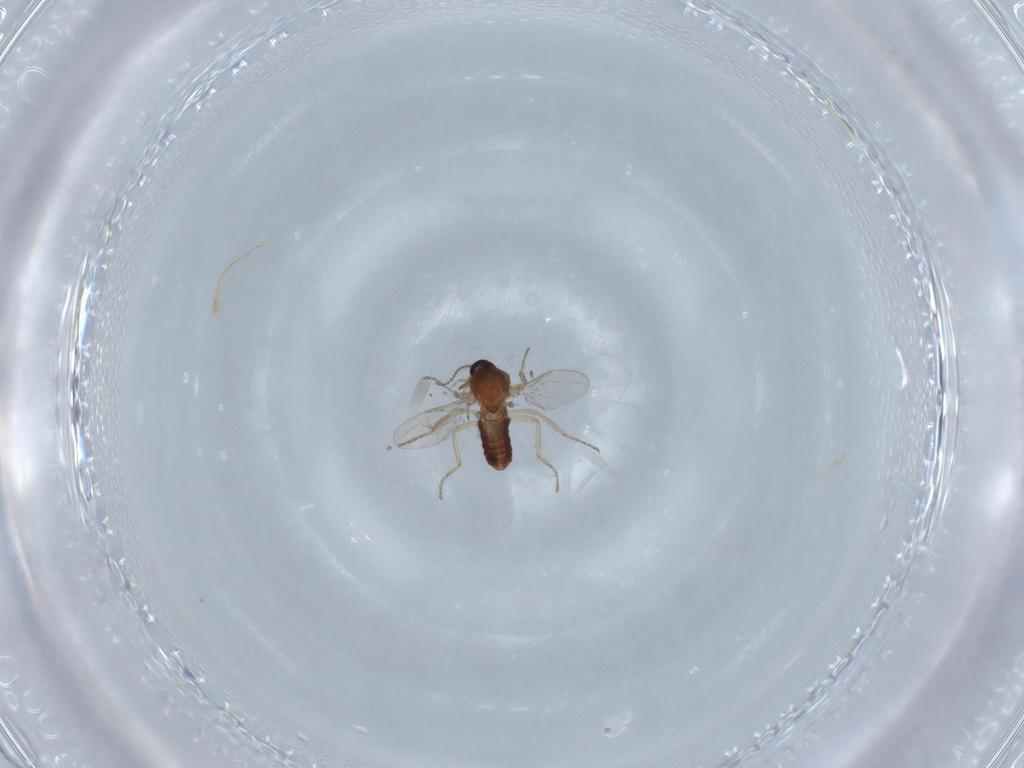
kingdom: Animalia
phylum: Arthropoda
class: Insecta
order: Diptera
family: Ceratopogonidae
